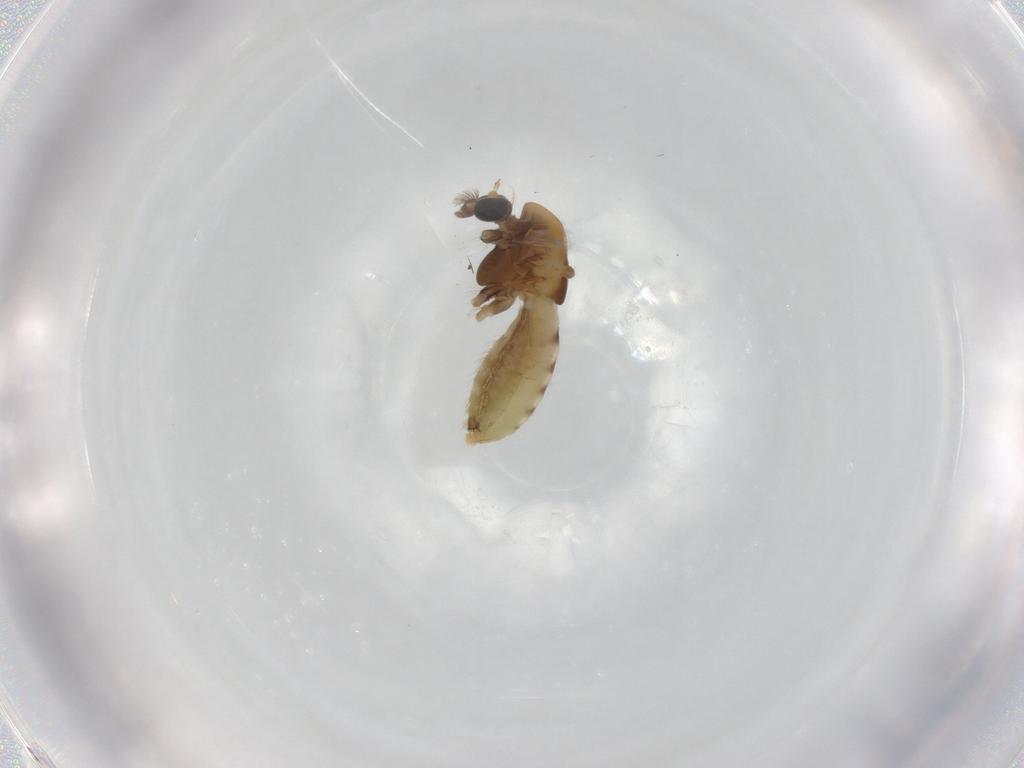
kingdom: Animalia
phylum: Arthropoda
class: Insecta
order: Diptera
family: Chironomidae
